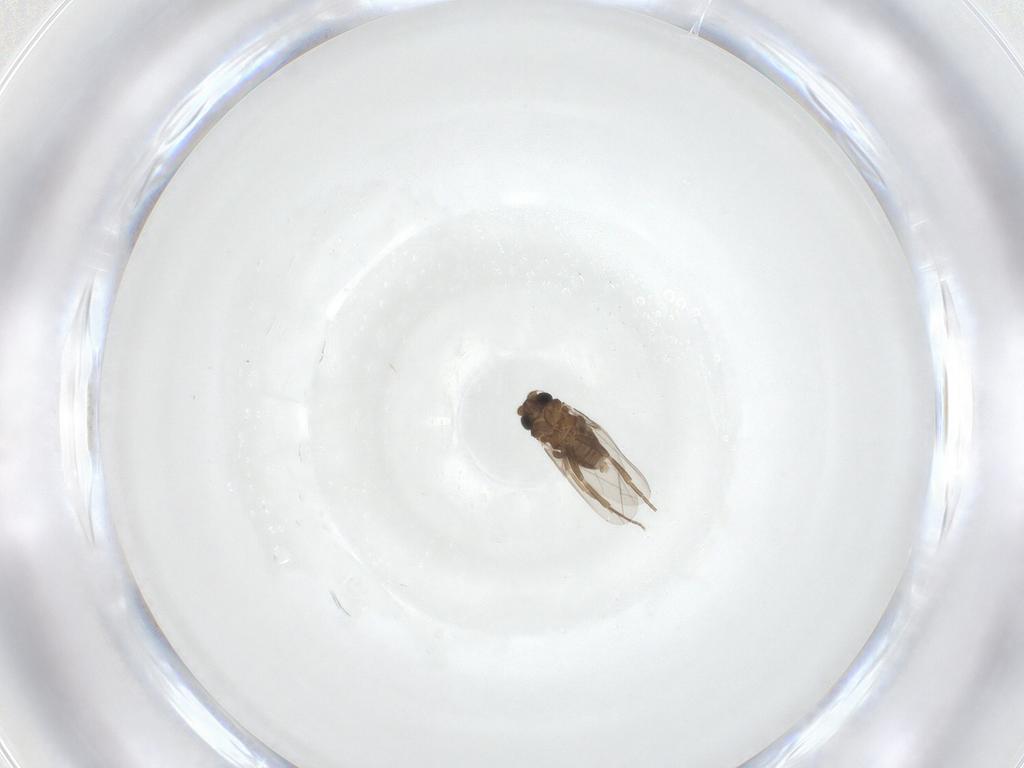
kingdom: Animalia
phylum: Arthropoda
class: Insecta
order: Diptera
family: Phoridae
